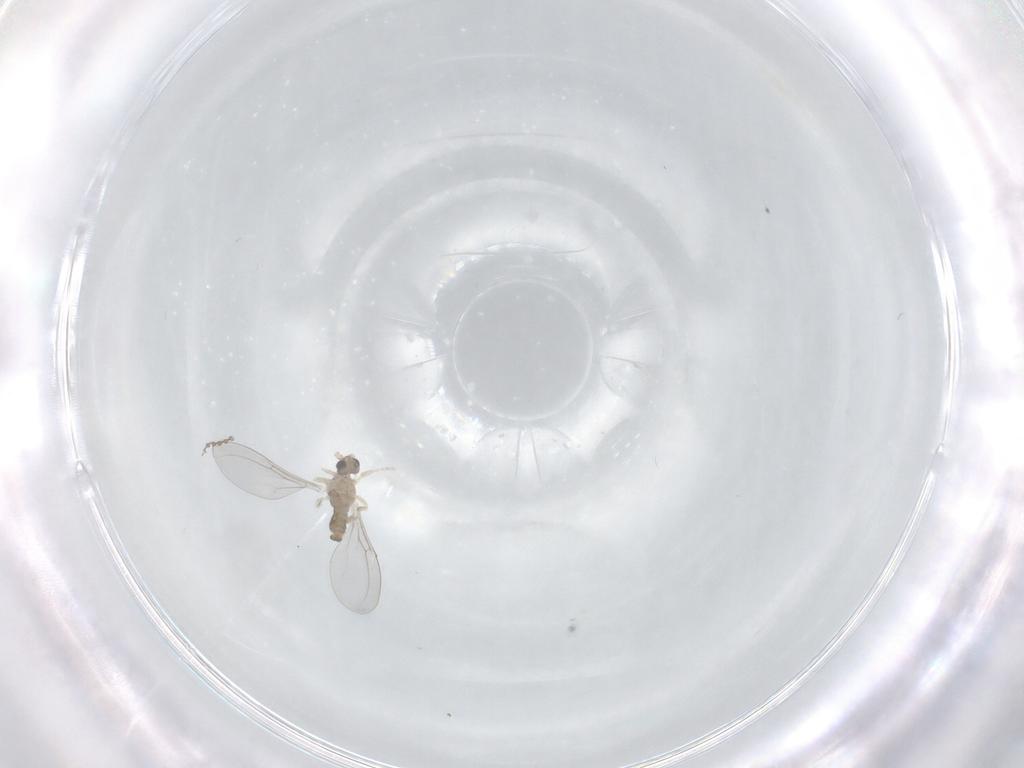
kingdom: Animalia
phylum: Arthropoda
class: Insecta
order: Diptera
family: Cecidomyiidae
